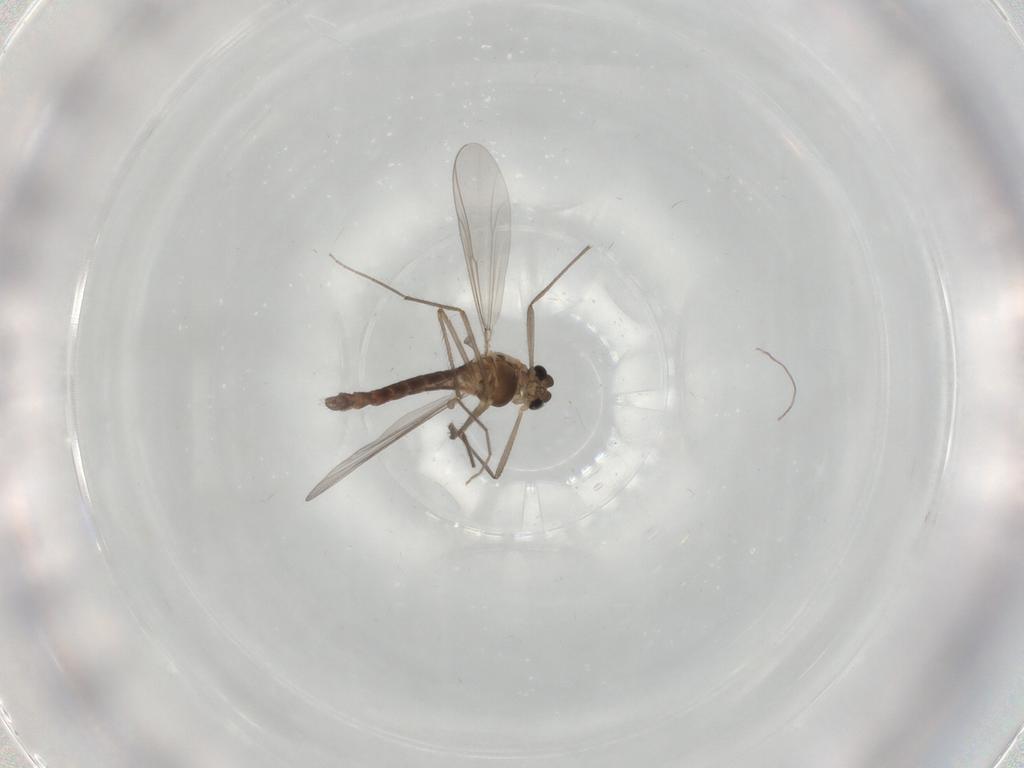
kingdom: Animalia
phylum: Arthropoda
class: Insecta
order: Diptera
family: Chironomidae
